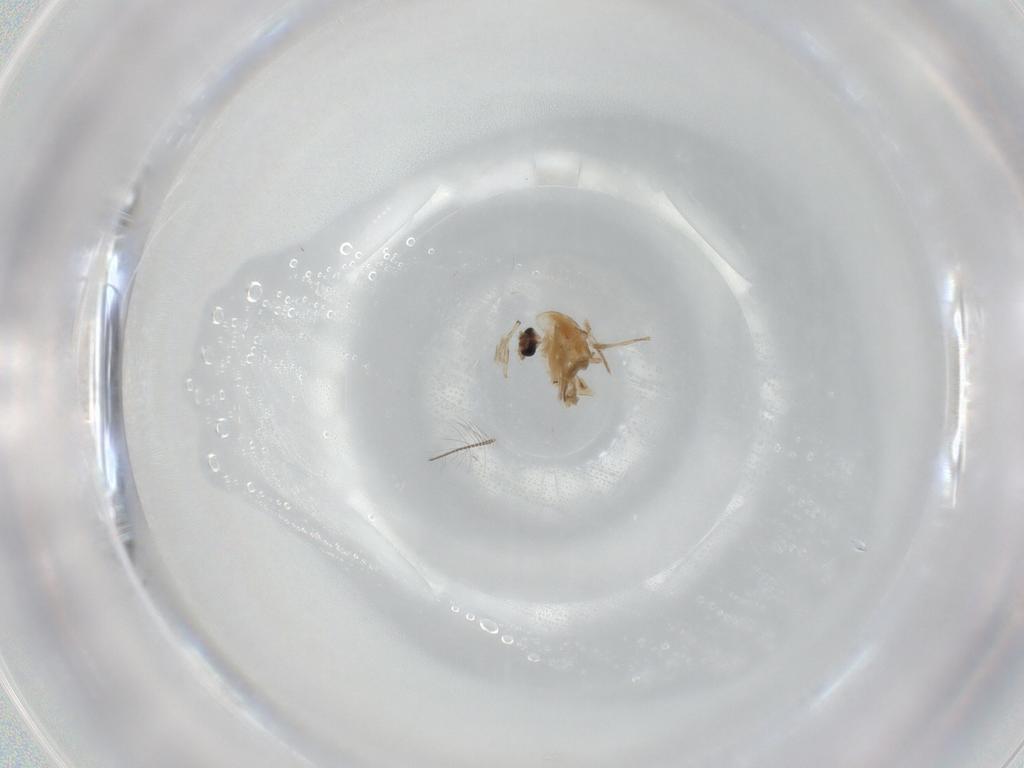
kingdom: Animalia
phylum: Arthropoda
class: Insecta
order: Diptera
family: Chironomidae
